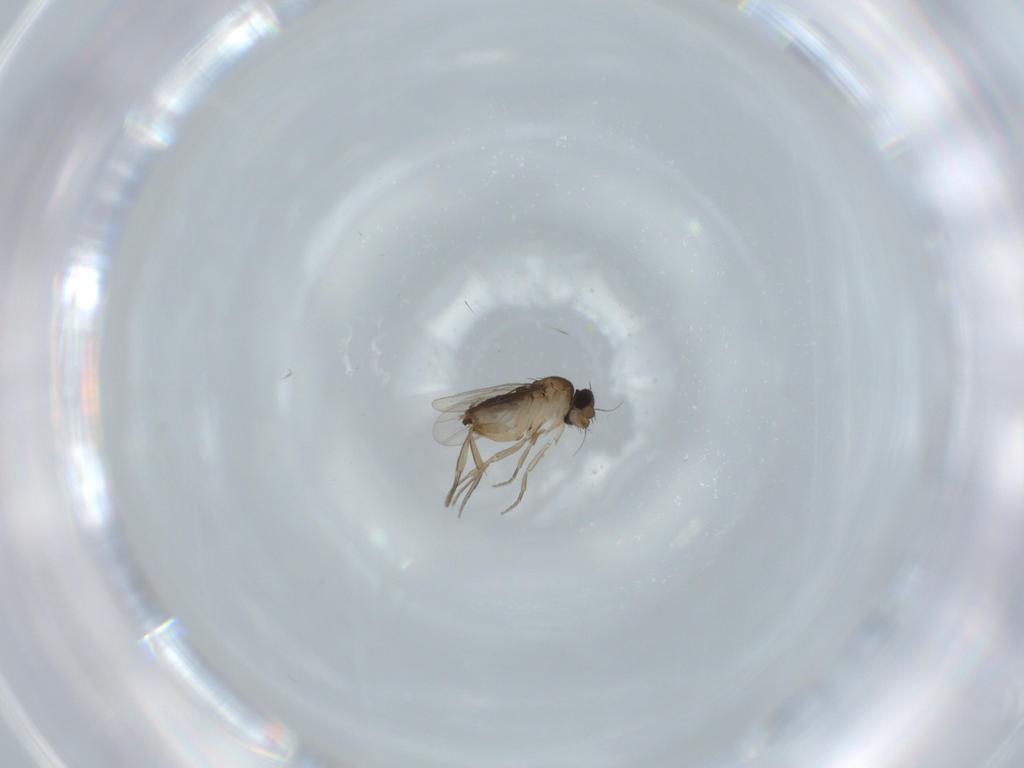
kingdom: Animalia
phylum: Arthropoda
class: Insecta
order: Diptera
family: Phoridae
